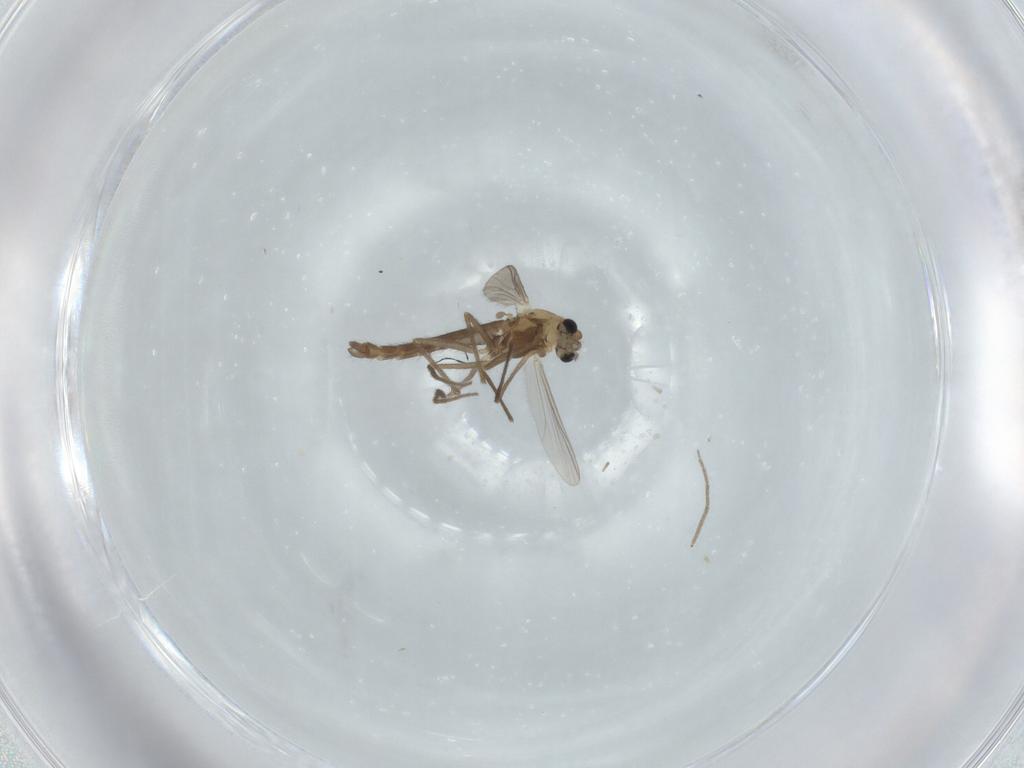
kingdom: Animalia
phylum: Arthropoda
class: Insecta
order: Diptera
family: Chironomidae
